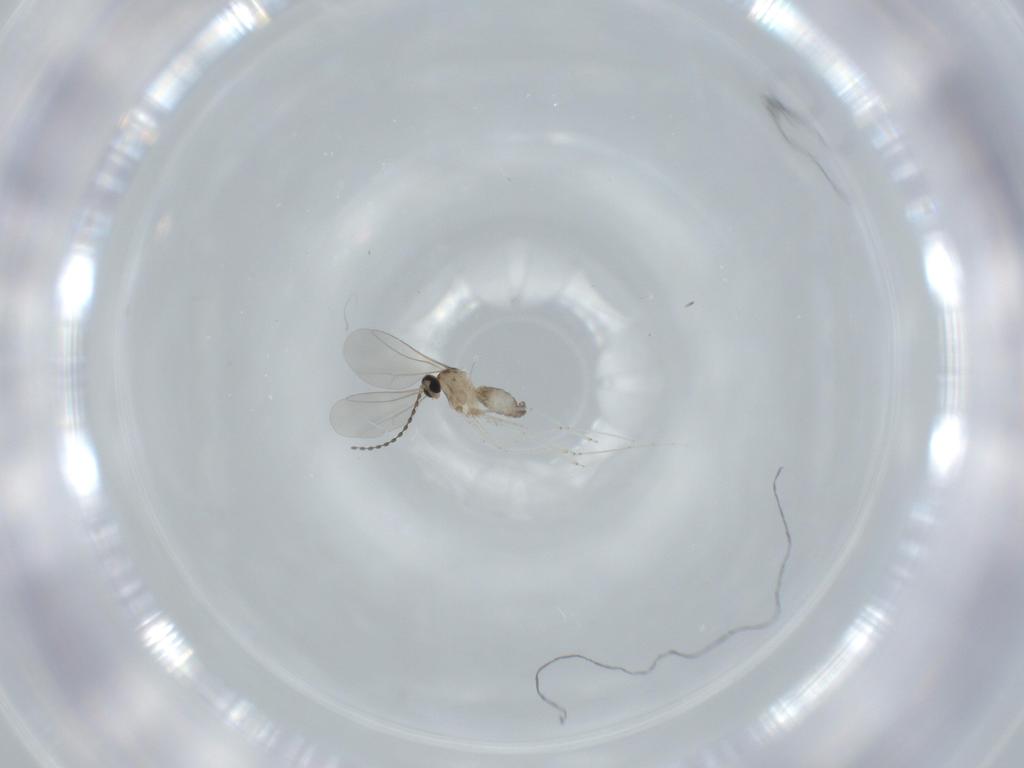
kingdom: Animalia
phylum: Arthropoda
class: Insecta
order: Diptera
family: Cecidomyiidae
